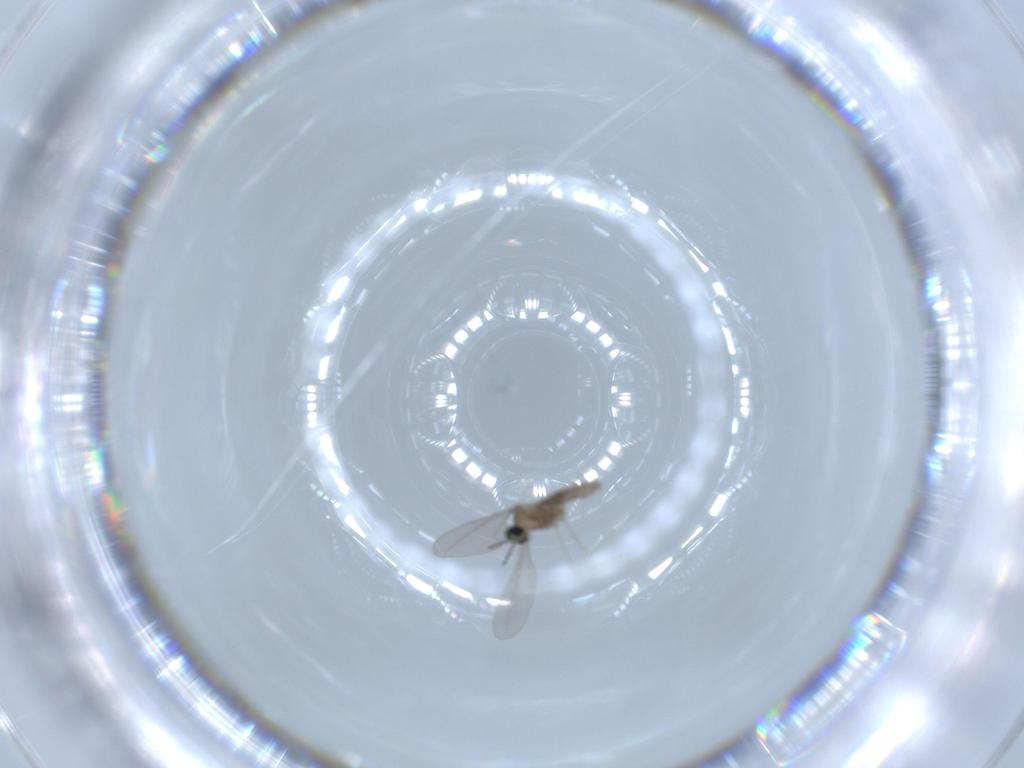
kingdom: Animalia
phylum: Arthropoda
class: Insecta
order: Diptera
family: Cecidomyiidae
